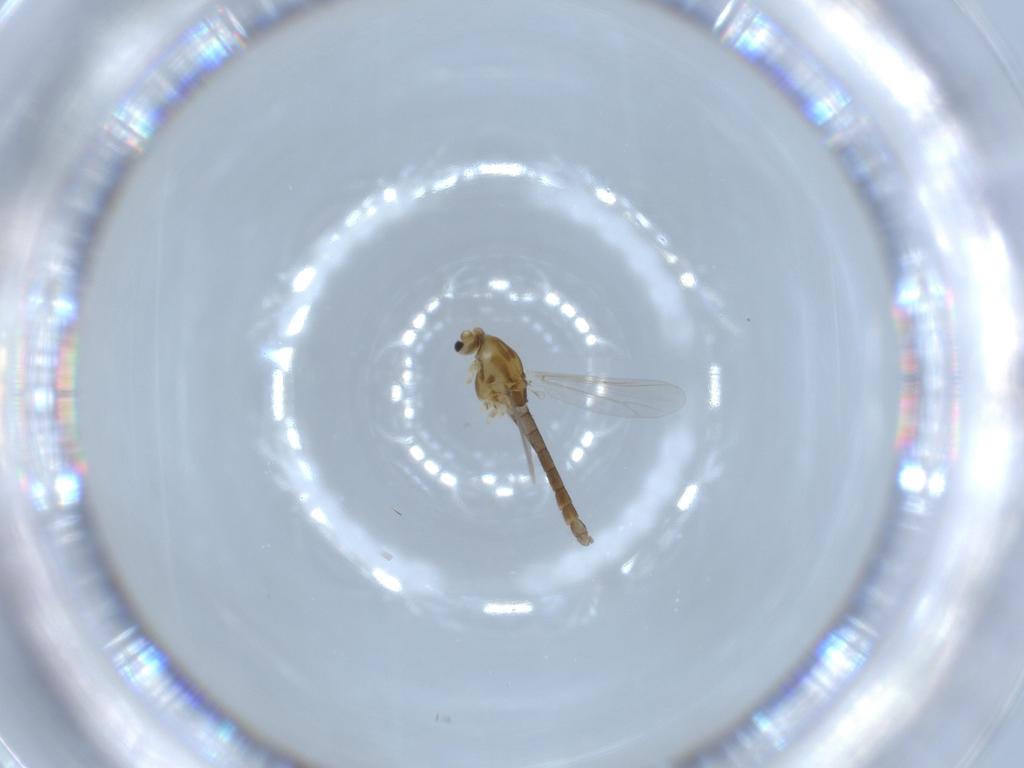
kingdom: Animalia
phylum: Arthropoda
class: Insecta
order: Diptera
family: Chironomidae
